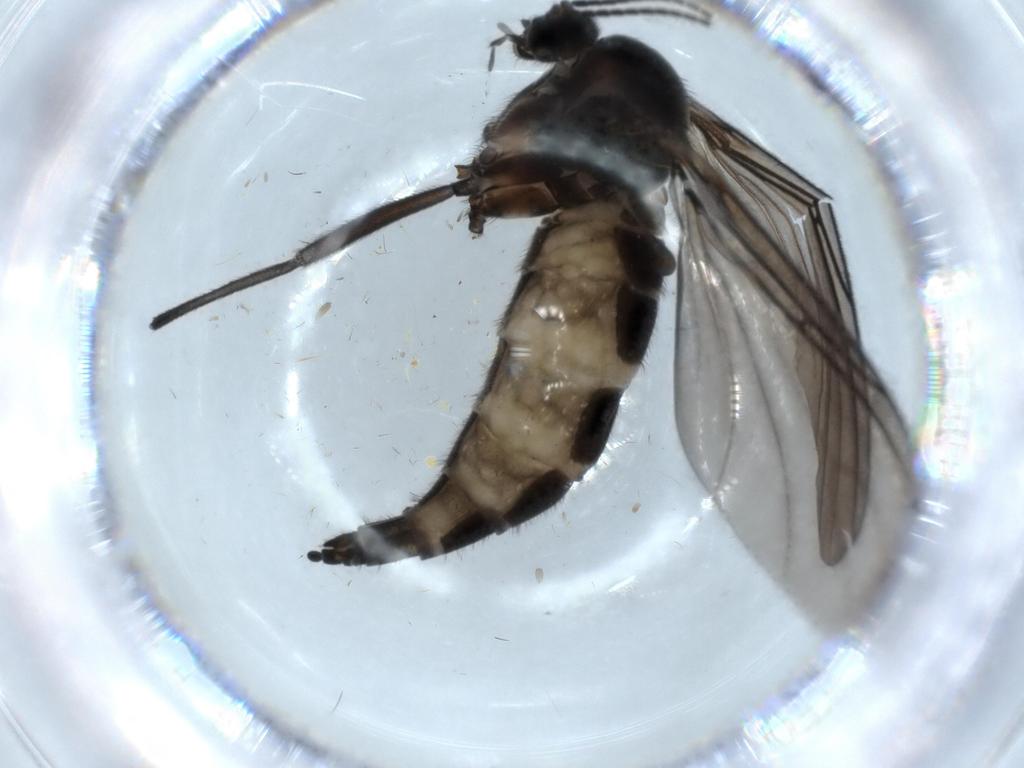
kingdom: Animalia
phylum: Arthropoda
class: Insecta
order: Diptera
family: Sciaridae
